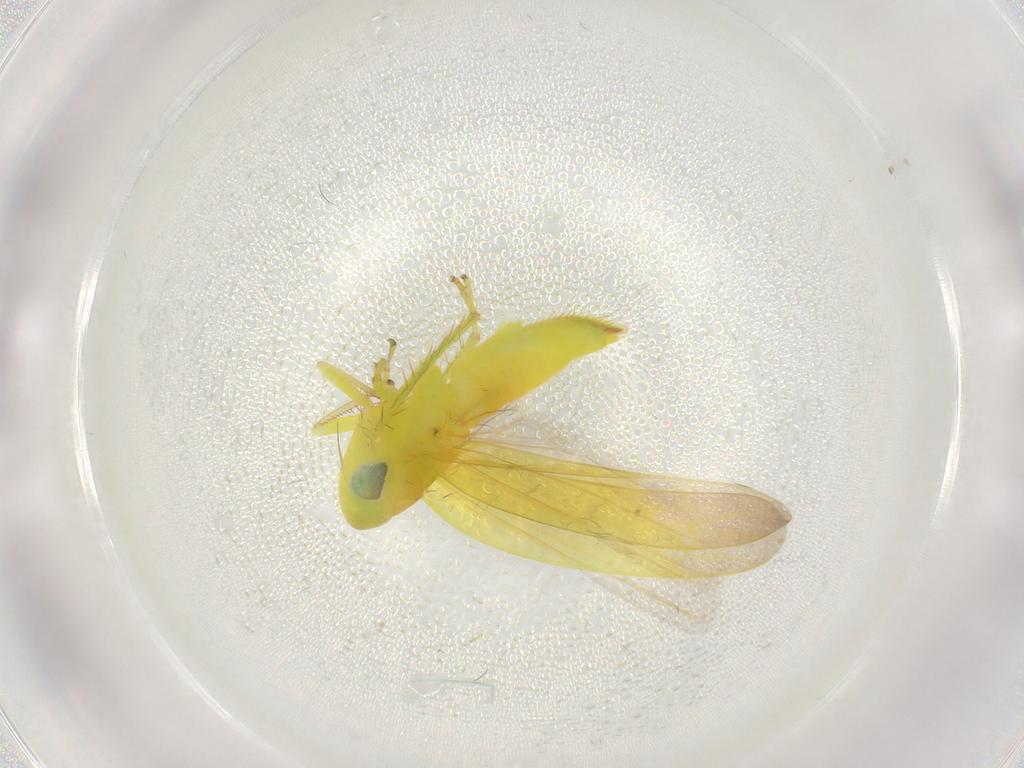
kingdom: Animalia
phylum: Arthropoda
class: Insecta
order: Hemiptera
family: Cicadellidae
